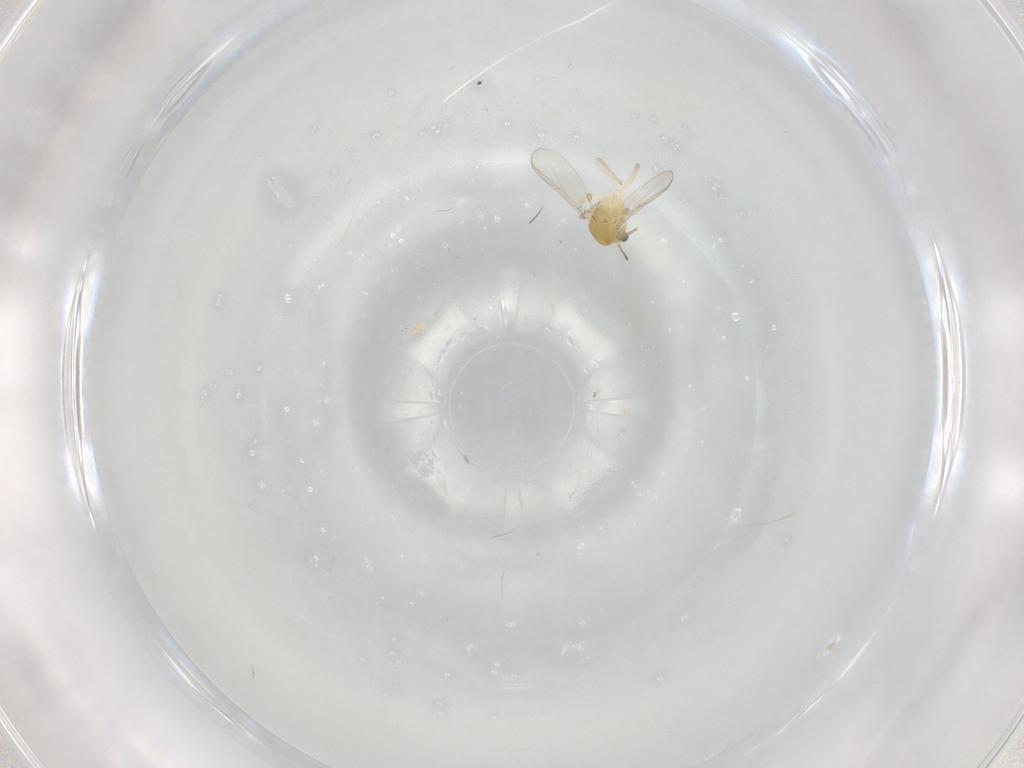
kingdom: Animalia
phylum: Arthropoda
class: Insecta
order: Diptera
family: Chironomidae
